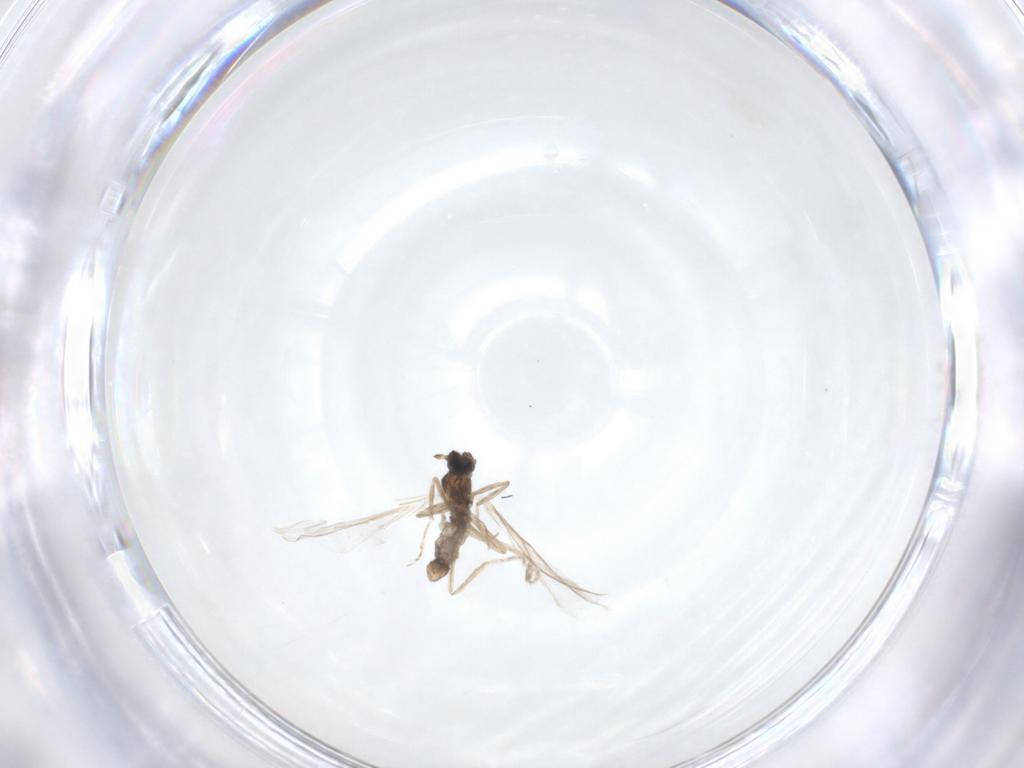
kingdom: Animalia
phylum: Arthropoda
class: Insecta
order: Diptera
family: Cecidomyiidae
